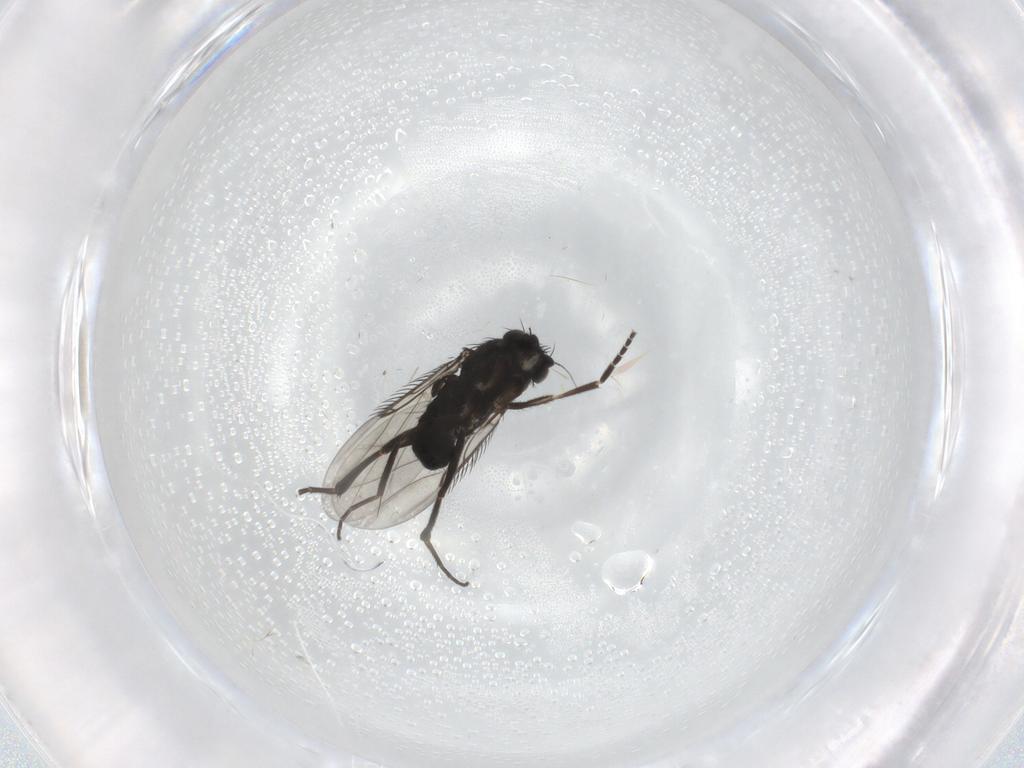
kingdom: Animalia
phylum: Arthropoda
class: Insecta
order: Diptera
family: Phoridae
